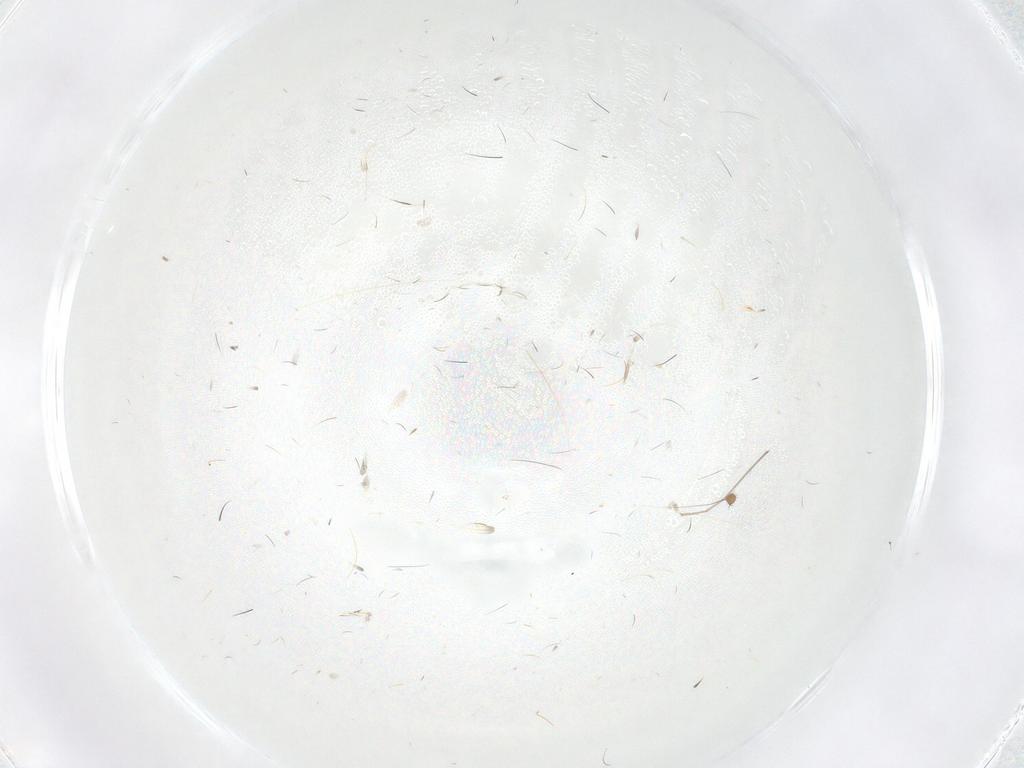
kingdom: Animalia
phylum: Arthropoda
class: Insecta
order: Diptera
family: Sphaeroceridae
